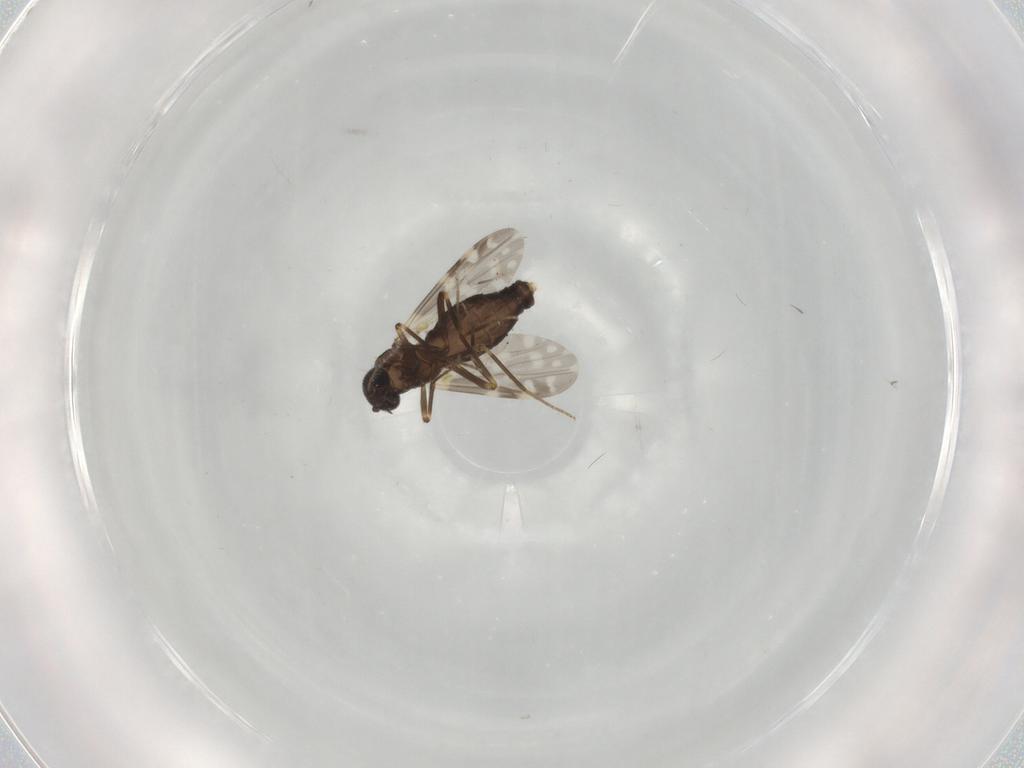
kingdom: Animalia
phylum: Arthropoda
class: Insecta
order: Diptera
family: Ceratopogonidae
